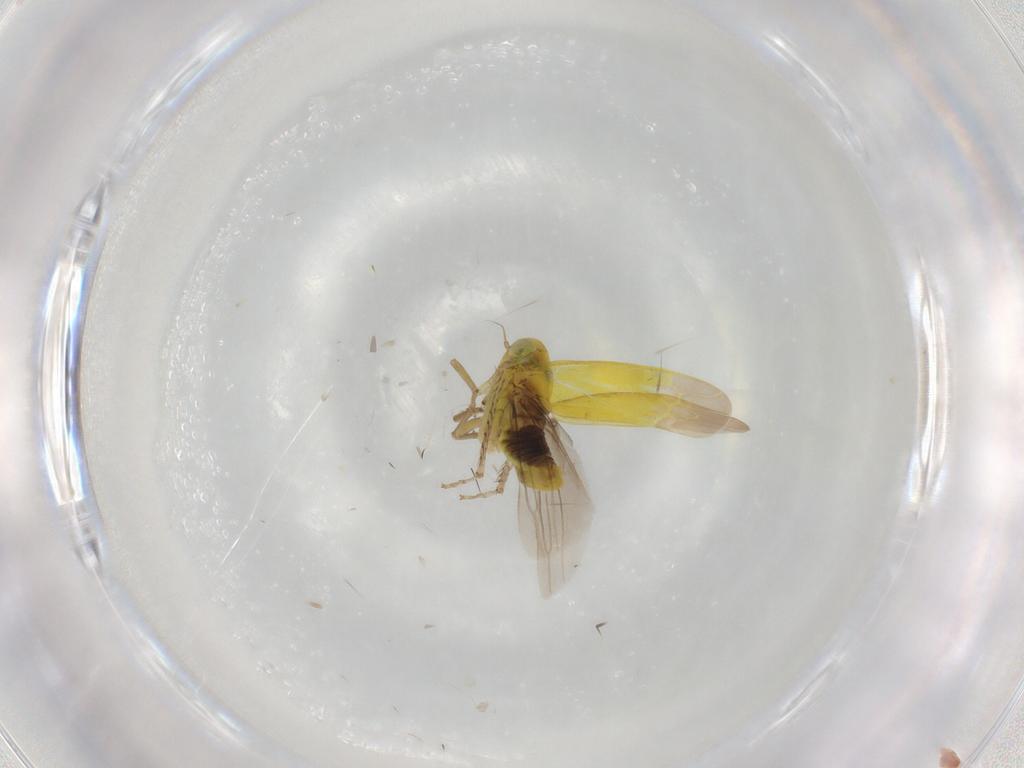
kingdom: Animalia
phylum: Arthropoda
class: Insecta
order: Hemiptera
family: Cicadellidae
